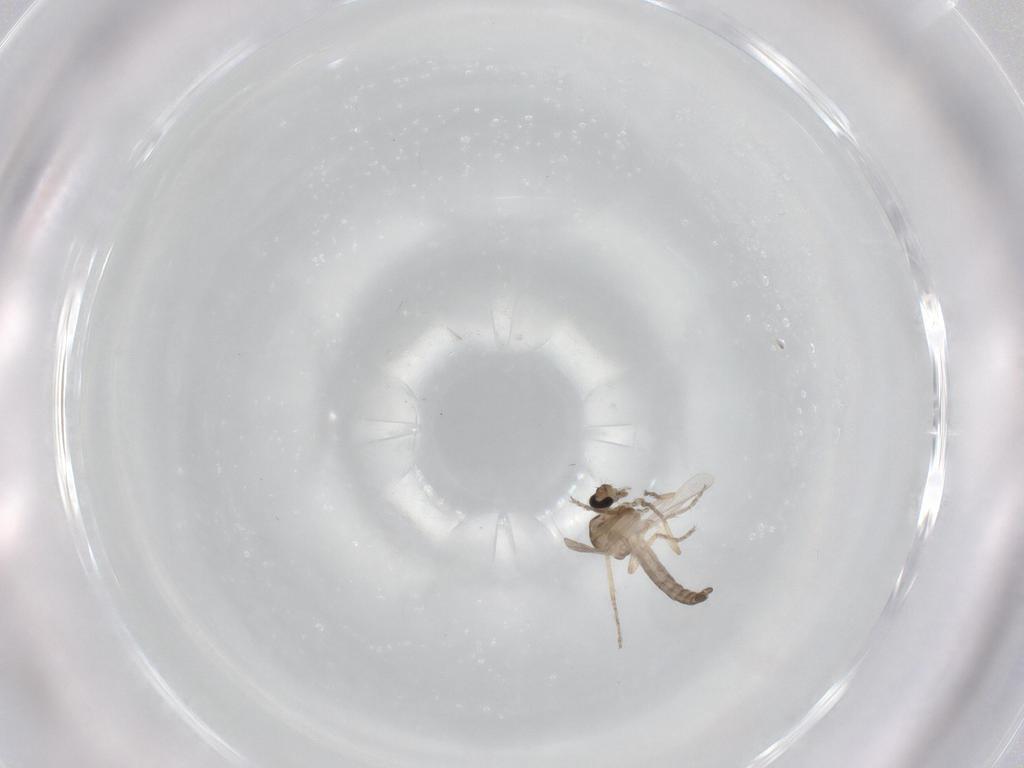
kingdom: Animalia
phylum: Arthropoda
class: Insecta
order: Diptera
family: Ceratopogonidae
